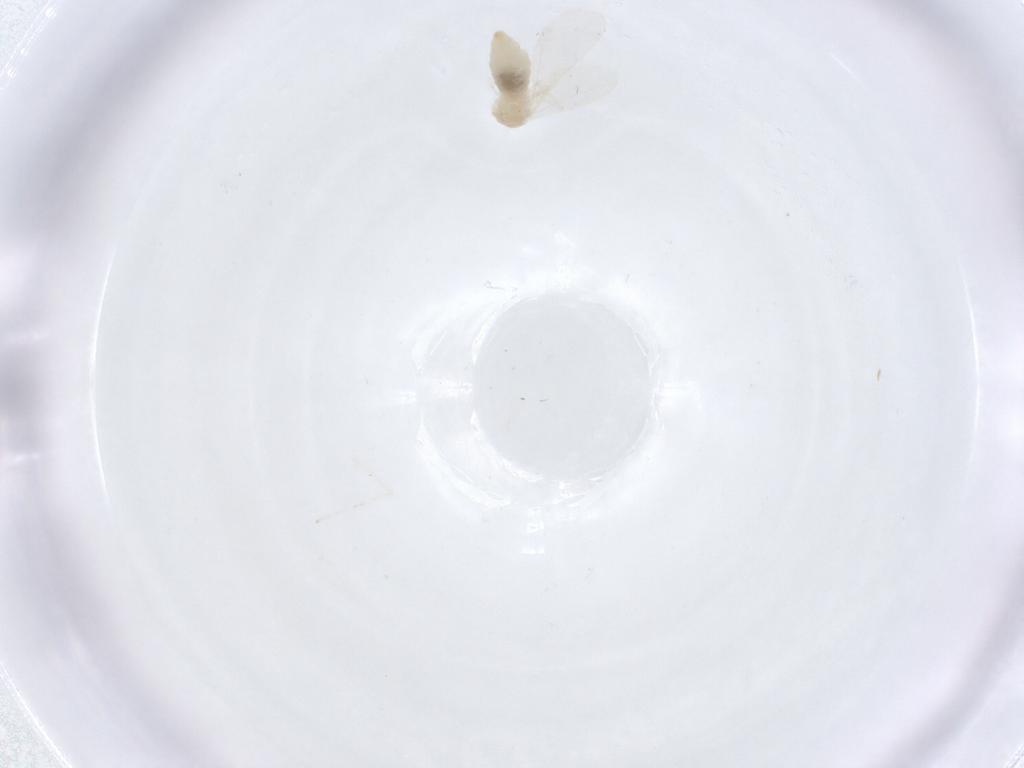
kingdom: Animalia
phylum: Arthropoda
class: Insecta
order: Diptera
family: Cecidomyiidae
